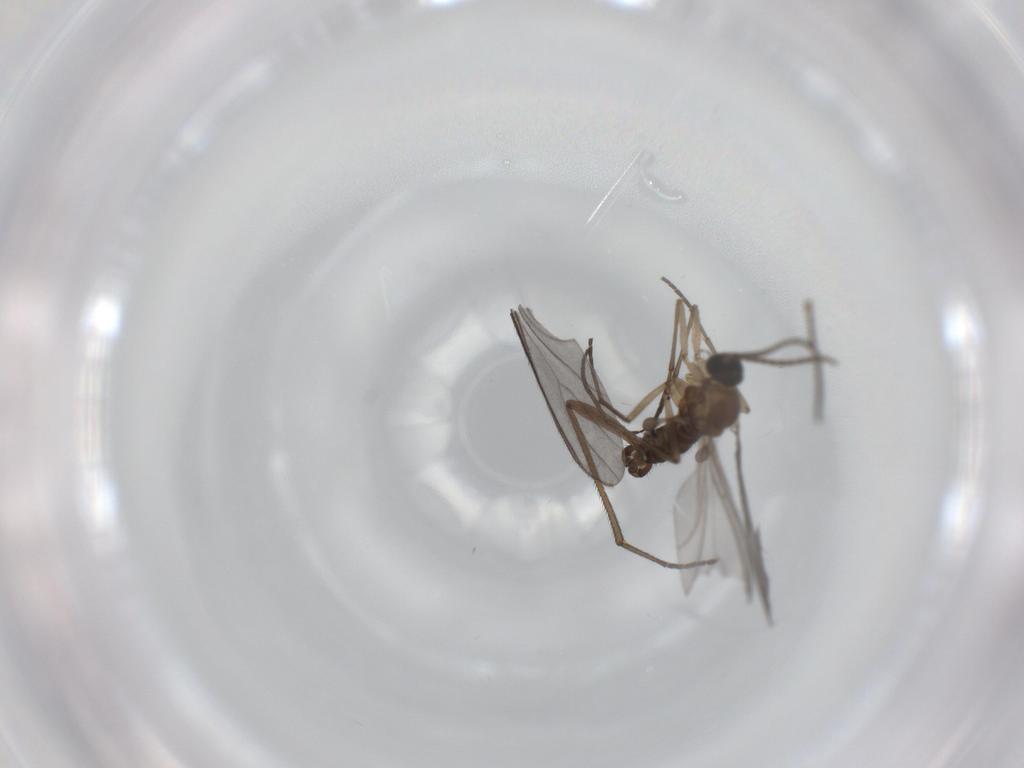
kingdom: Animalia
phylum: Arthropoda
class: Insecta
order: Diptera
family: Sciaridae
